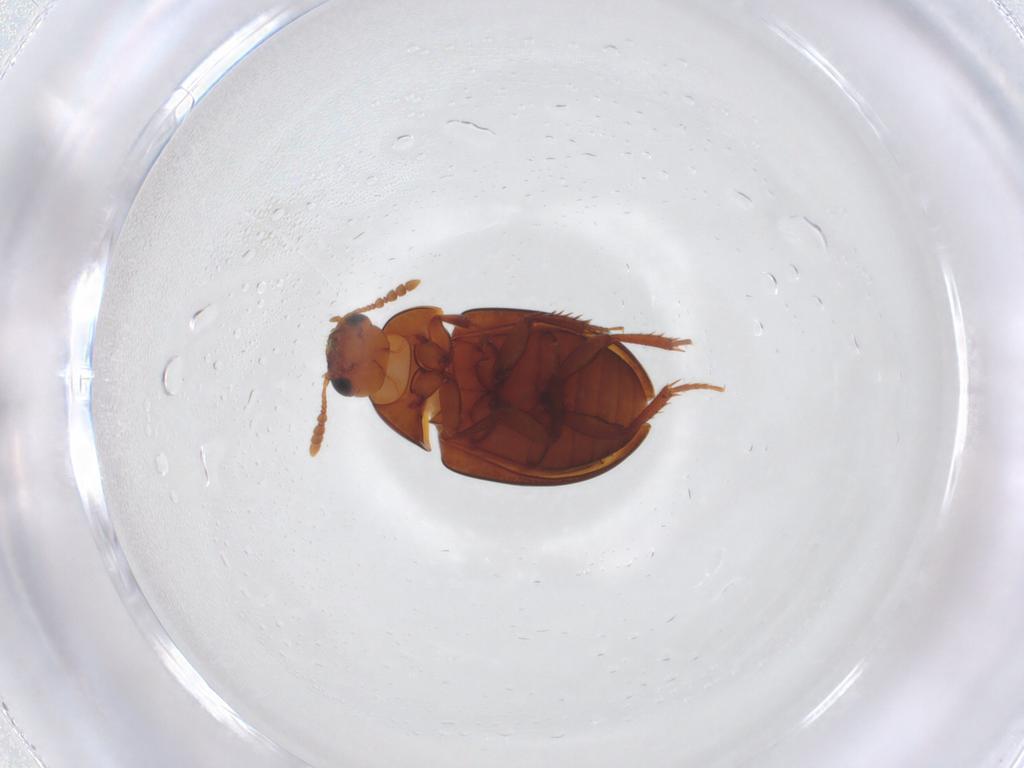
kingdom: Animalia
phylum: Arthropoda
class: Insecta
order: Coleoptera
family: Leiodidae
